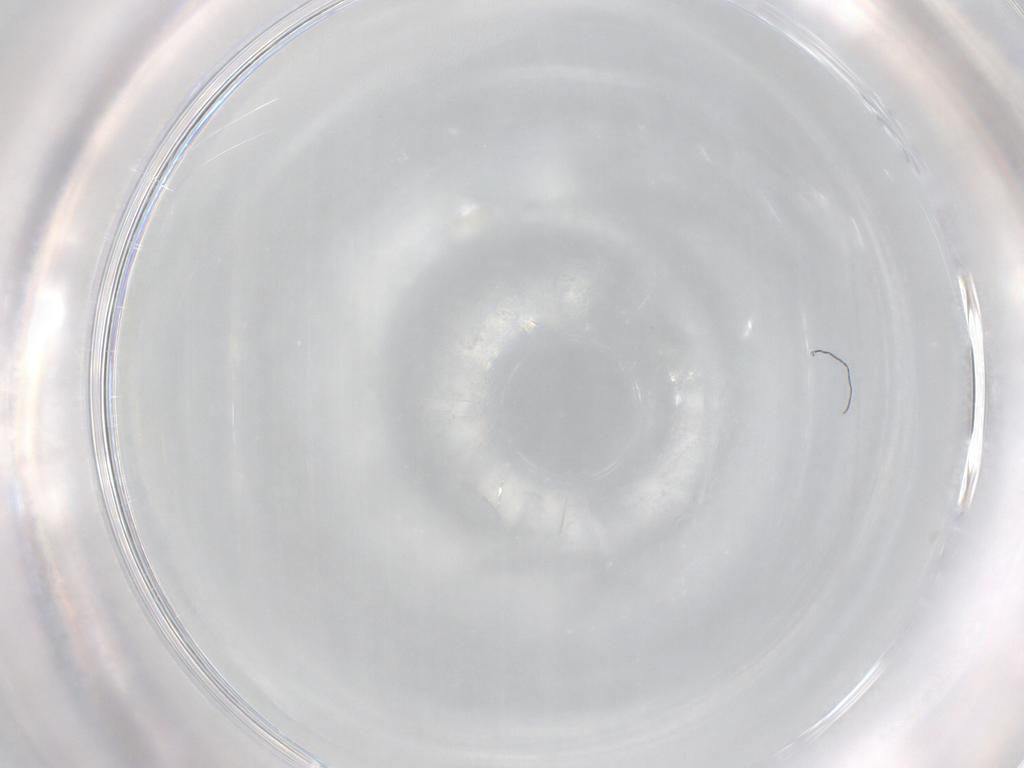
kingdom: Animalia
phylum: Arthropoda
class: Insecta
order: Diptera
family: Sciaridae
